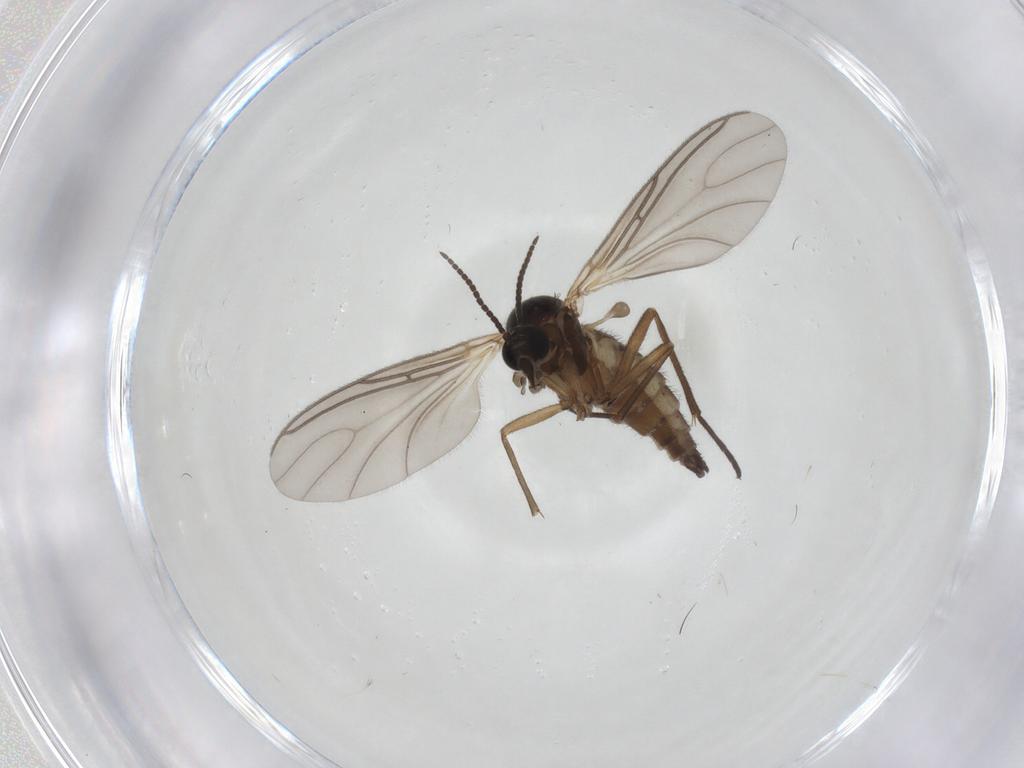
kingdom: Animalia
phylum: Arthropoda
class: Insecta
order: Diptera
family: Sciaridae
